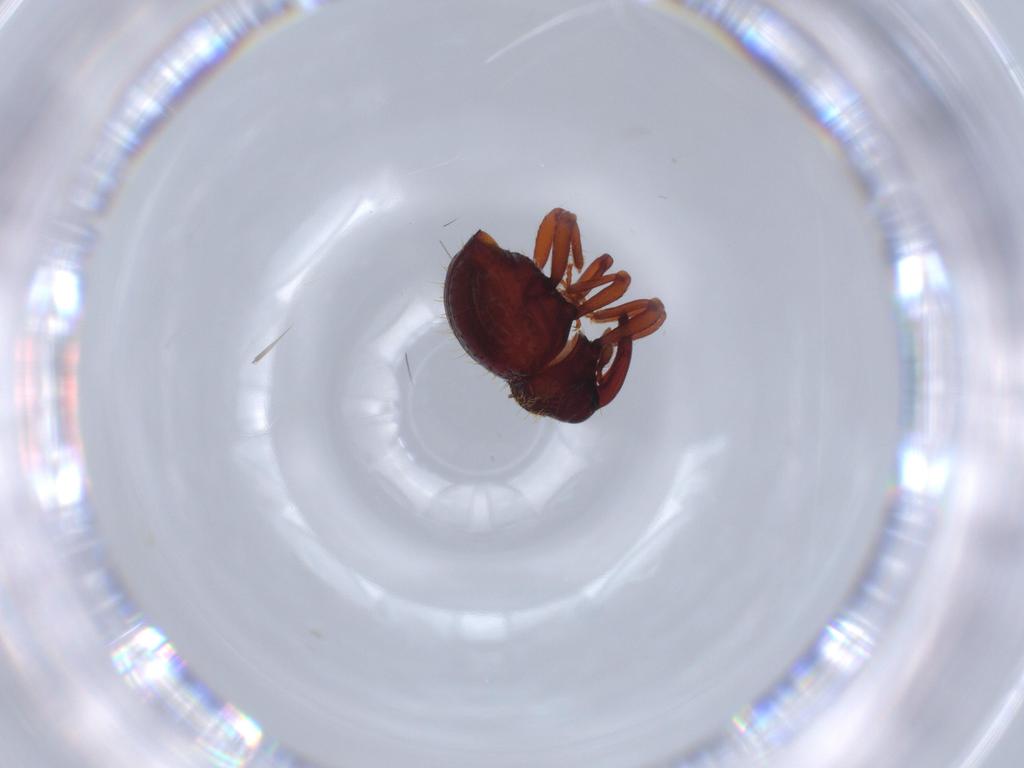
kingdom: Animalia
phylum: Arthropoda
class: Insecta
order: Coleoptera
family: Curculionidae
